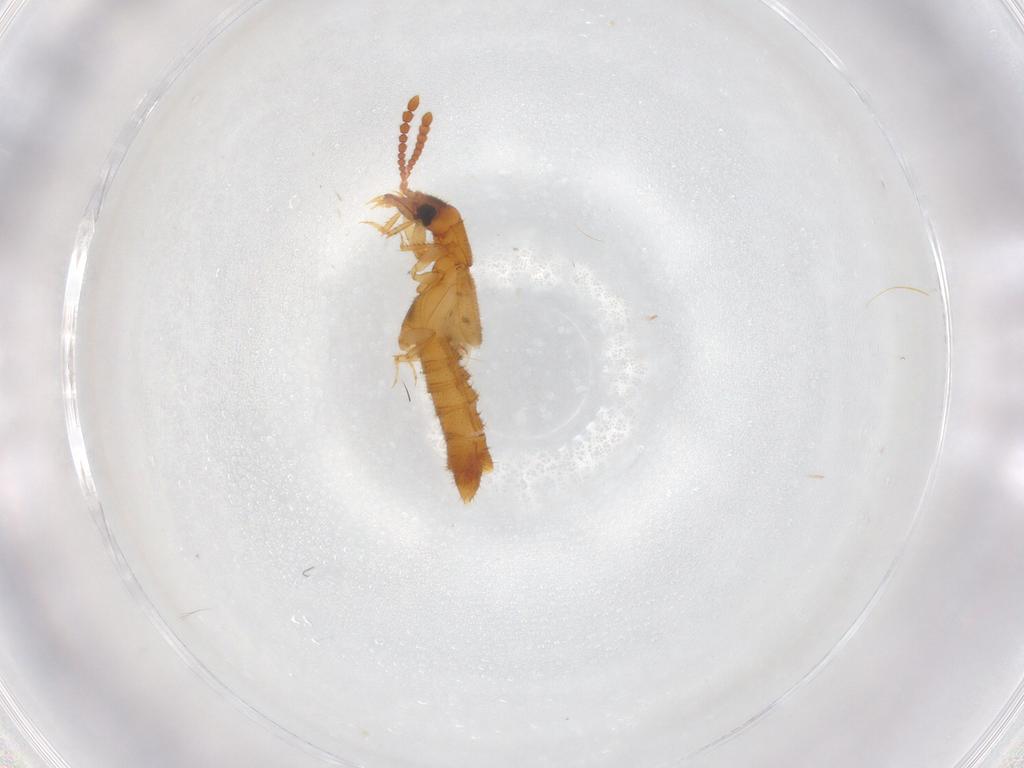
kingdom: Animalia
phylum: Arthropoda
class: Insecta
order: Coleoptera
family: Staphylinidae
